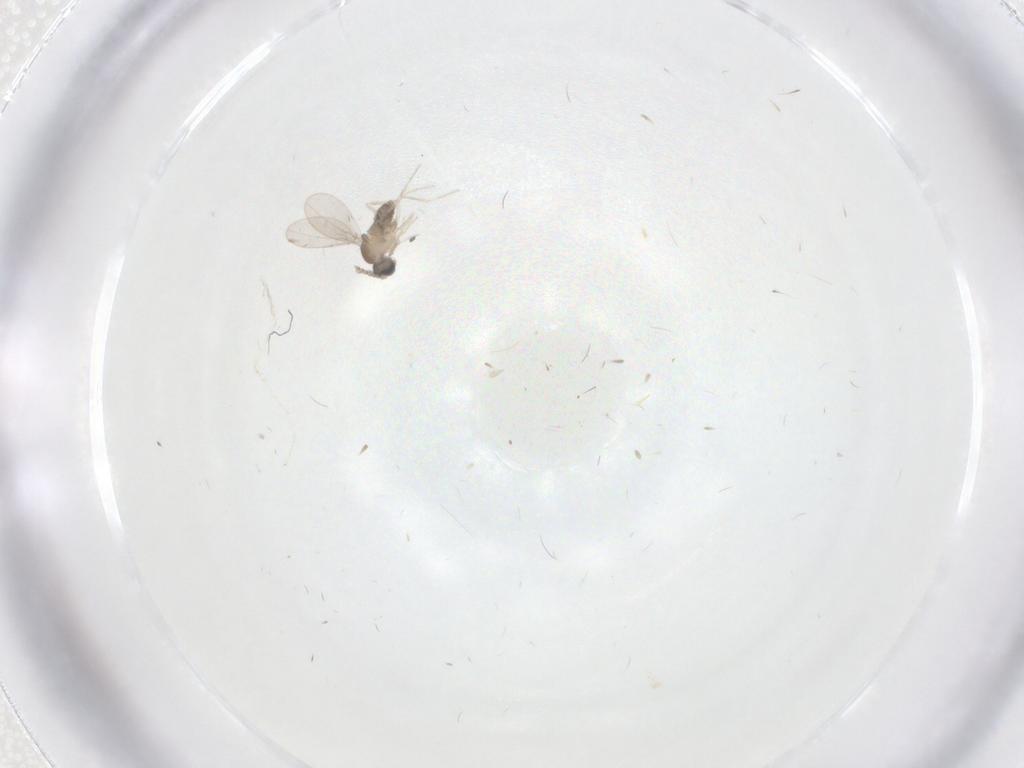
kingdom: Animalia
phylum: Arthropoda
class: Insecta
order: Diptera
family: Cecidomyiidae
